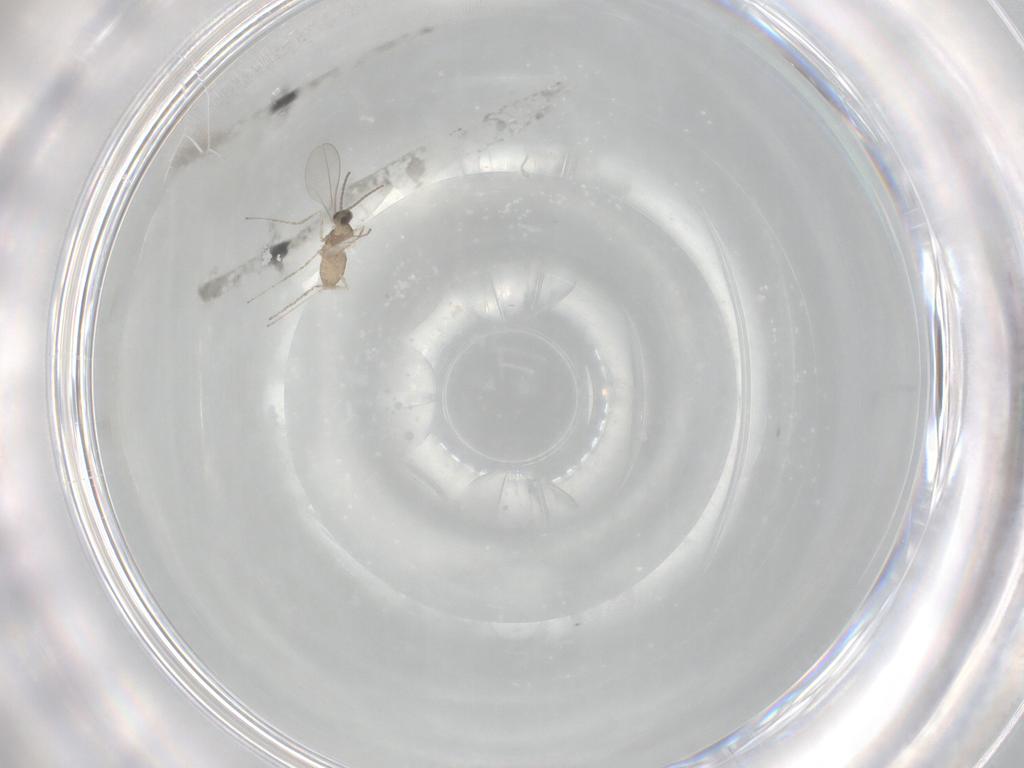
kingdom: Animalia
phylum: Arthropoda
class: Insecta
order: Diptera
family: Cecidomyiidae
